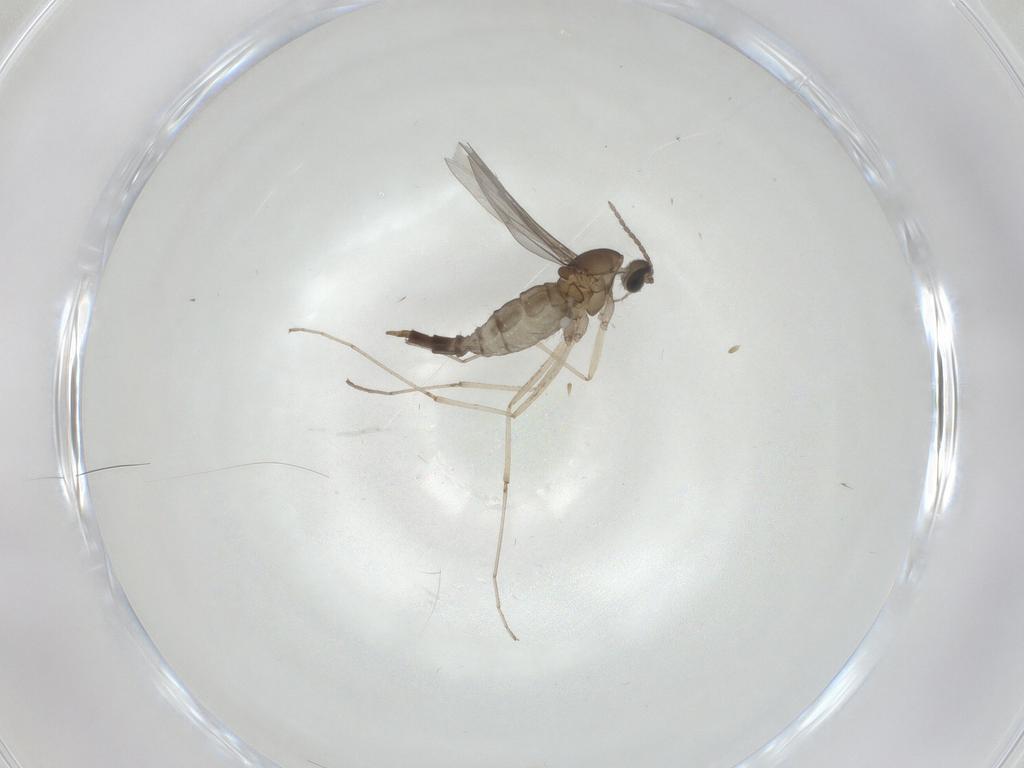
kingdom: Animalia
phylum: Arthropoda
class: Insecta
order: Diptera
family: Cecidomyiidae
